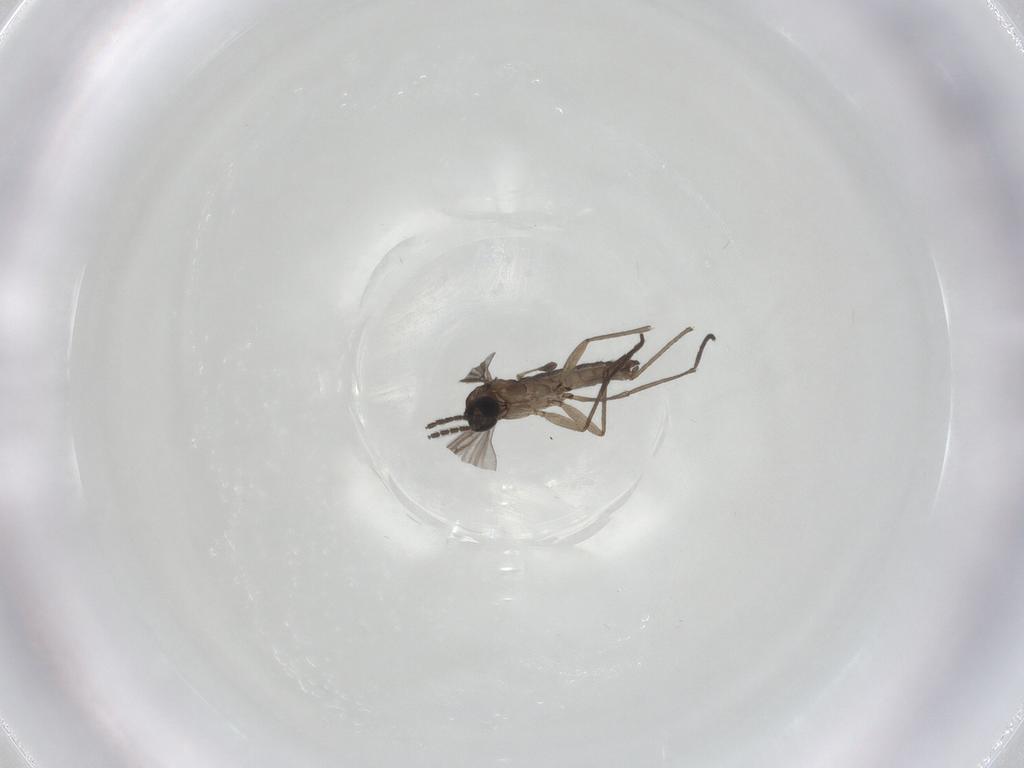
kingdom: Animalia
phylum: Arthropoda
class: Insecta
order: Diptera
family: Sciaridae
